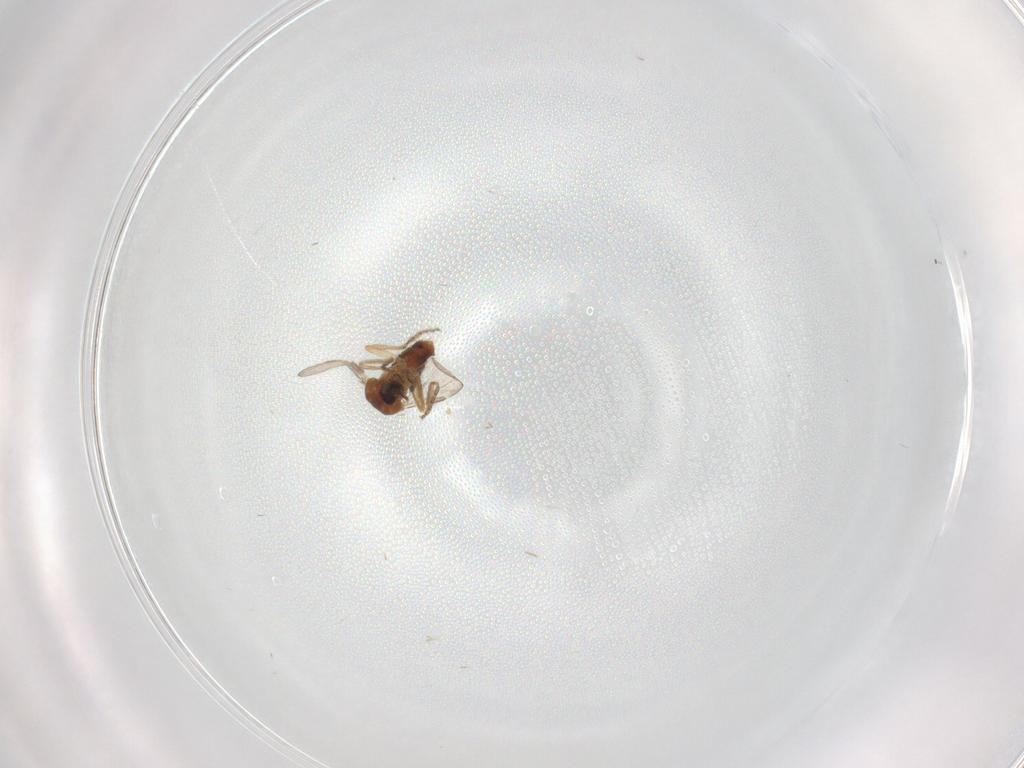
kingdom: Animalia
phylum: Arthropoda
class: Insecta
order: Diptera
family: Ceratopogonidae
